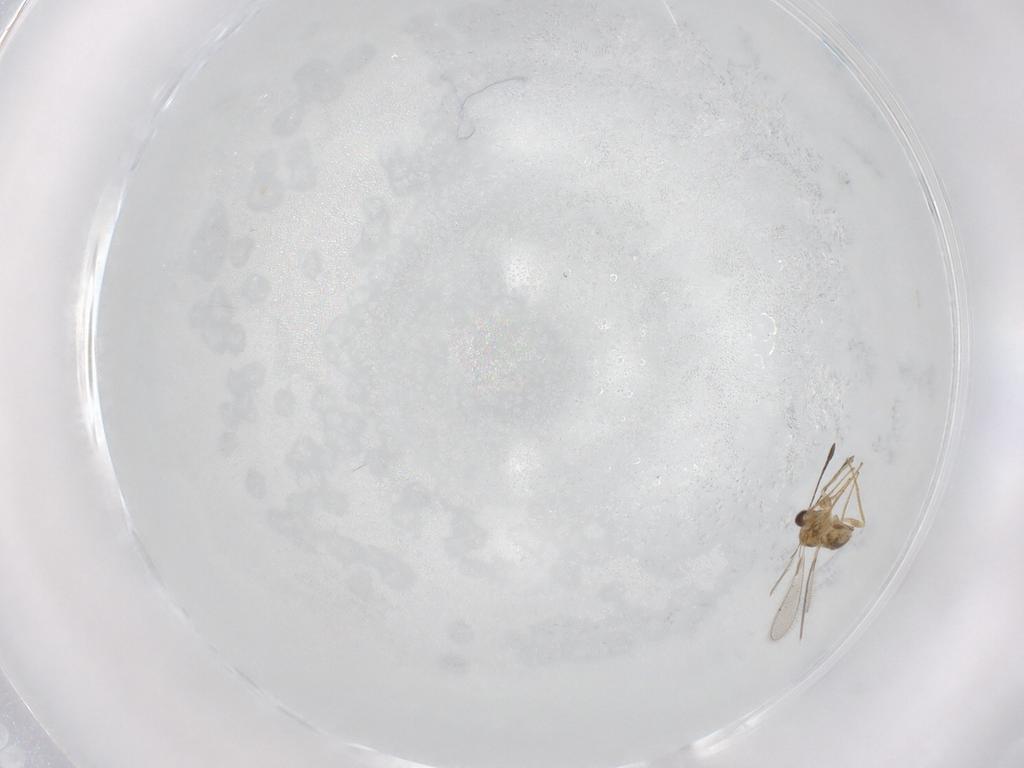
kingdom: Animalia
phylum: Arthropoda
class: Insecta
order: Hymenoptera
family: Mymaridae
